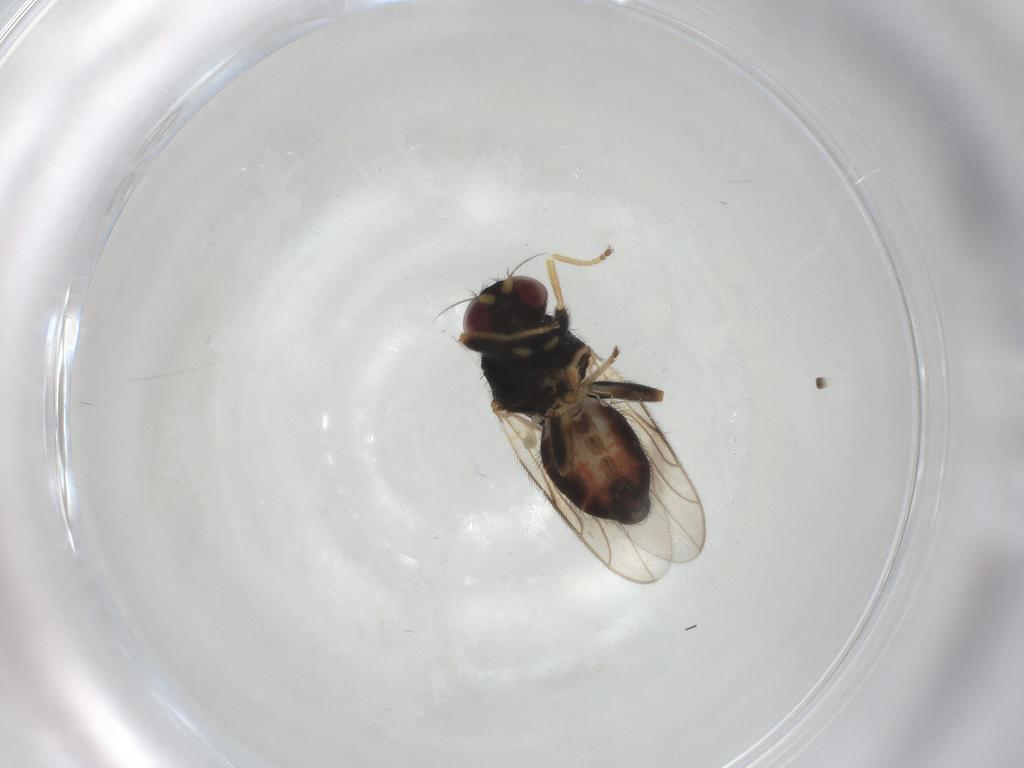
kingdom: Animalia
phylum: Arthropoda
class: Insecta
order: Diptera
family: Chloropidae
